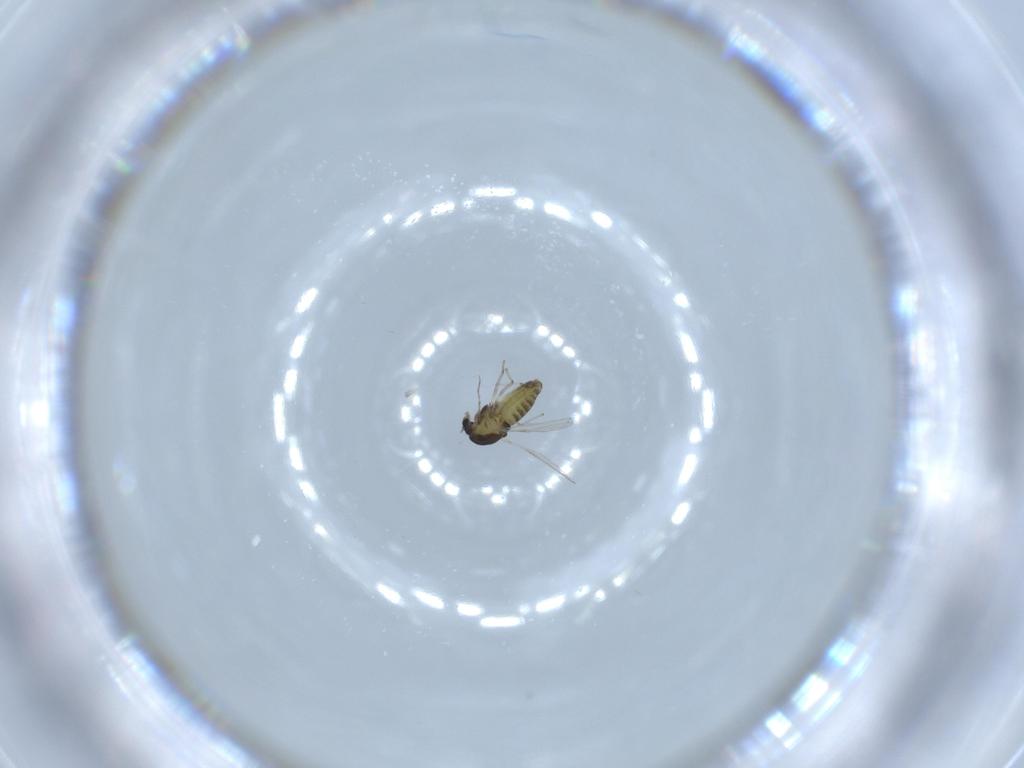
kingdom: Animalia
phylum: Arthropoda
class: Insecta
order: Diptera
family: Chironomidae
